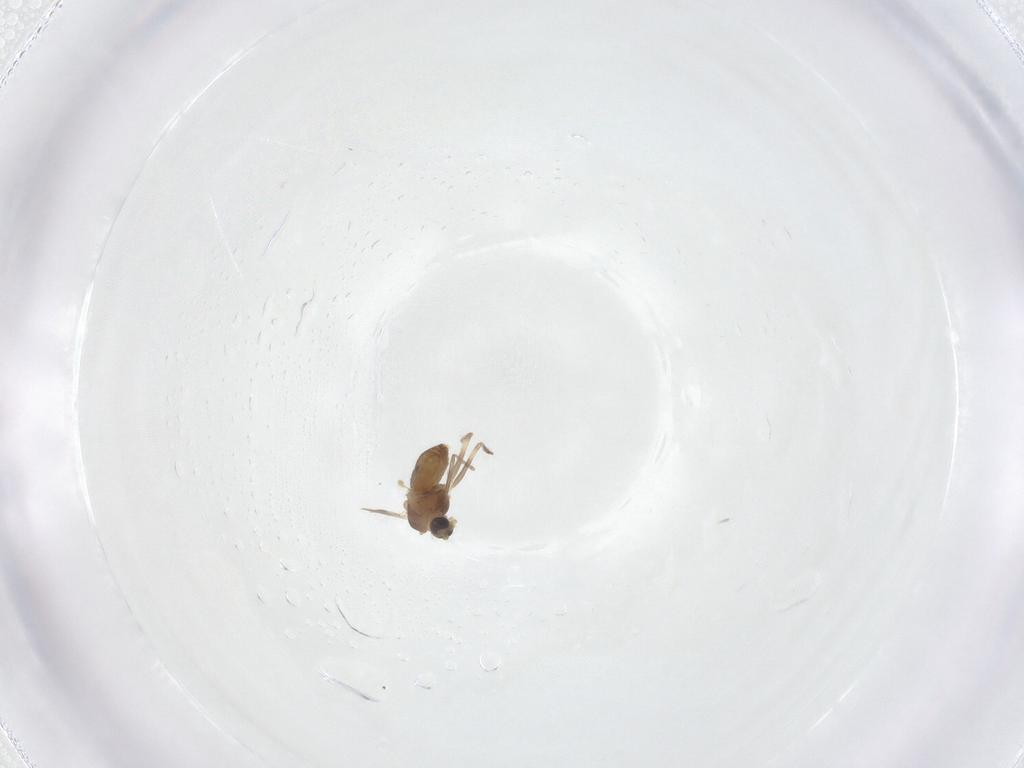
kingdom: Animalia
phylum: Arthropoda
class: Insecta
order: Diptera
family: Chironomidae
